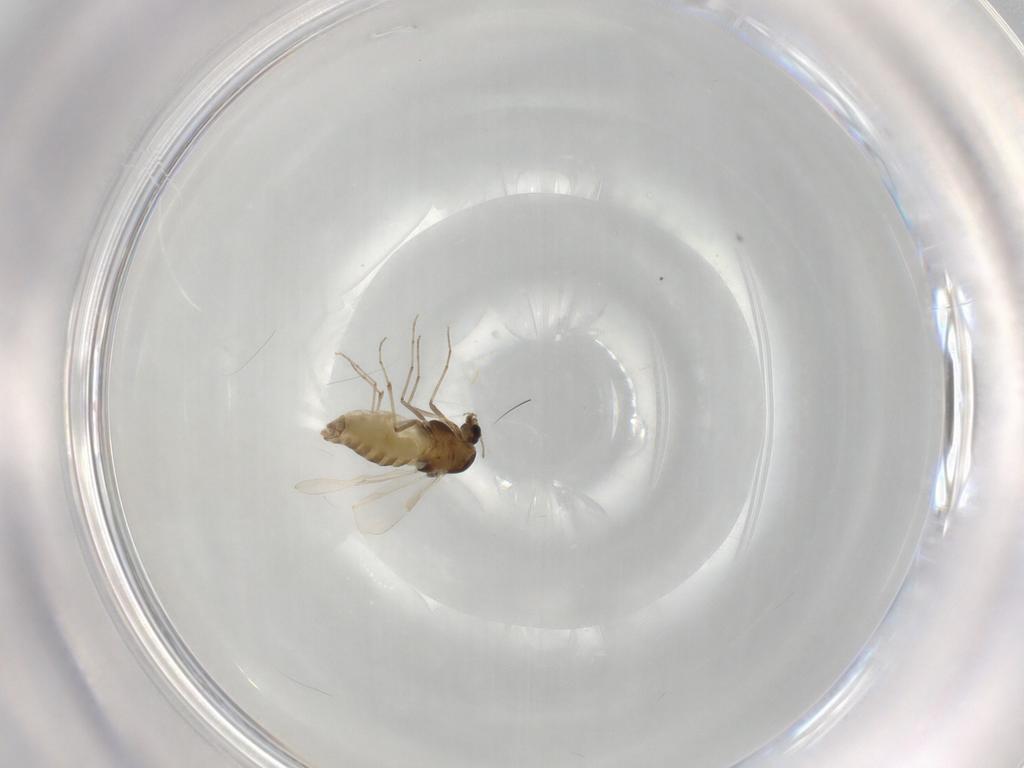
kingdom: Animalia
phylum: Arthropoda
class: Insecta
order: Diptera
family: Chironomidae
